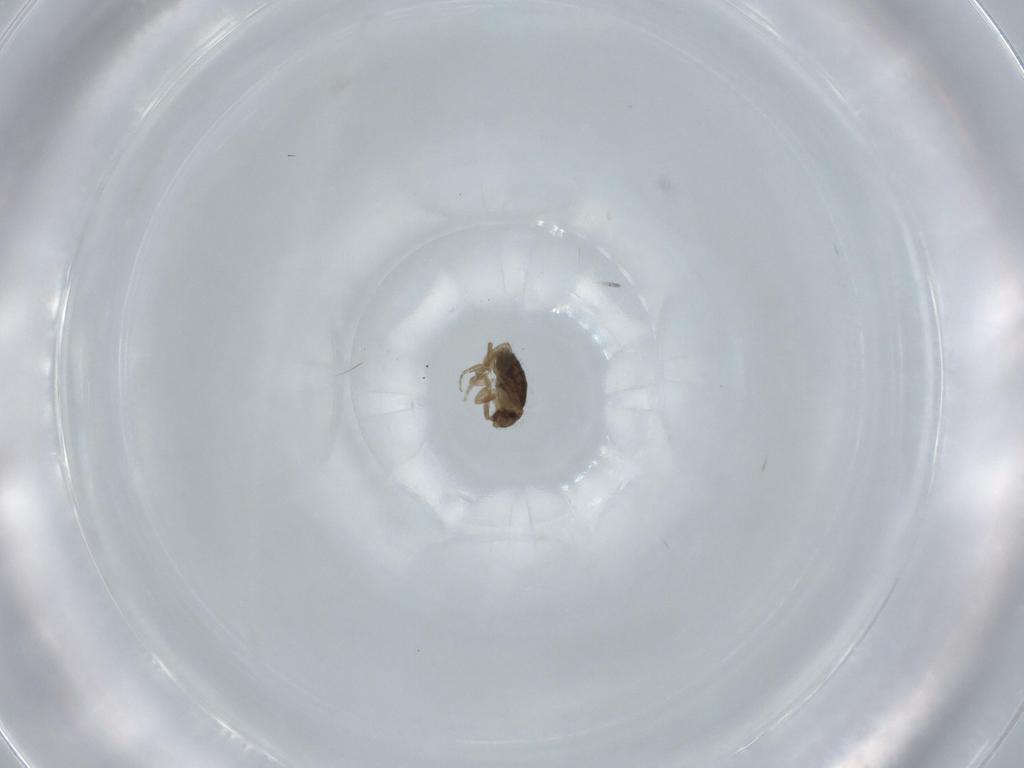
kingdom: Animalia
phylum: Arthropoda
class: Insecta
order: Diptera
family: Phoridae
